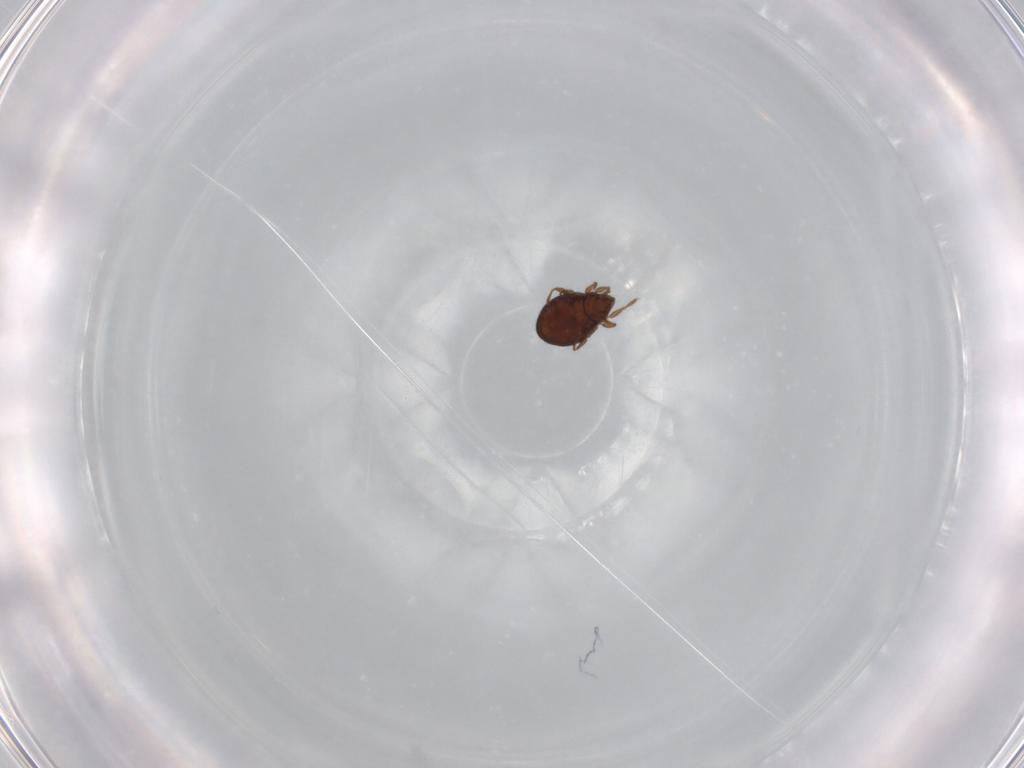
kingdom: Animalia
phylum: Arthropoda
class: Arachnida
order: Sarcoptiformes
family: Oribatulidae
